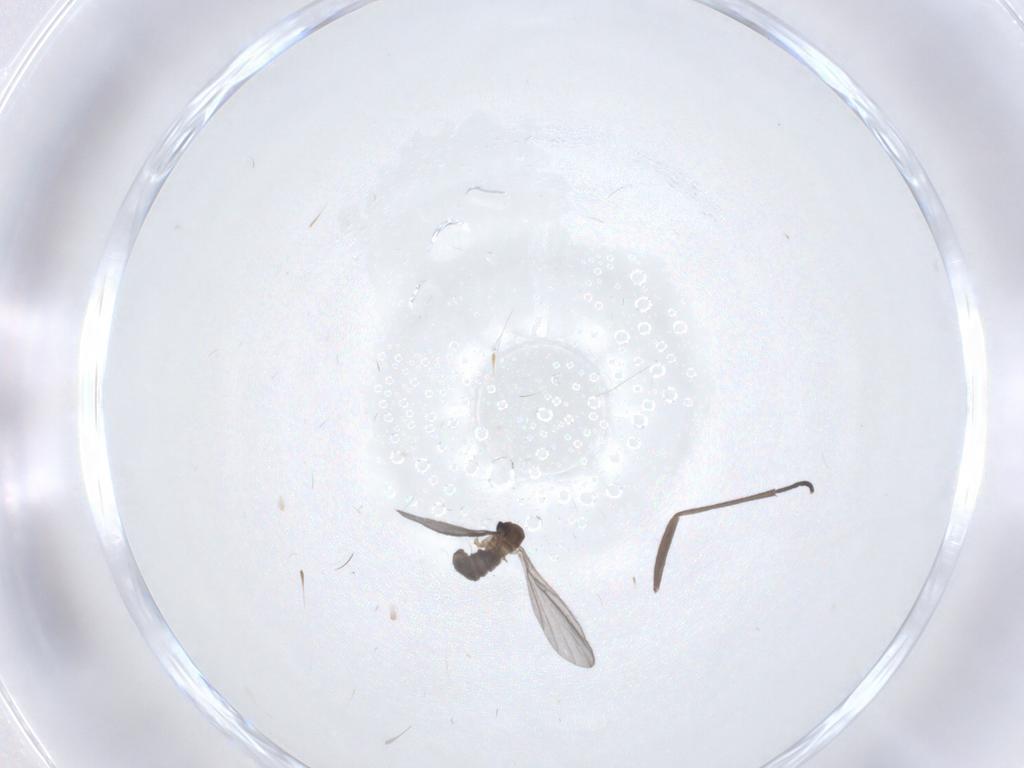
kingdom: Animalia
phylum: Arthropoda
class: Insecta
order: Diptera
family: Sciaridae
